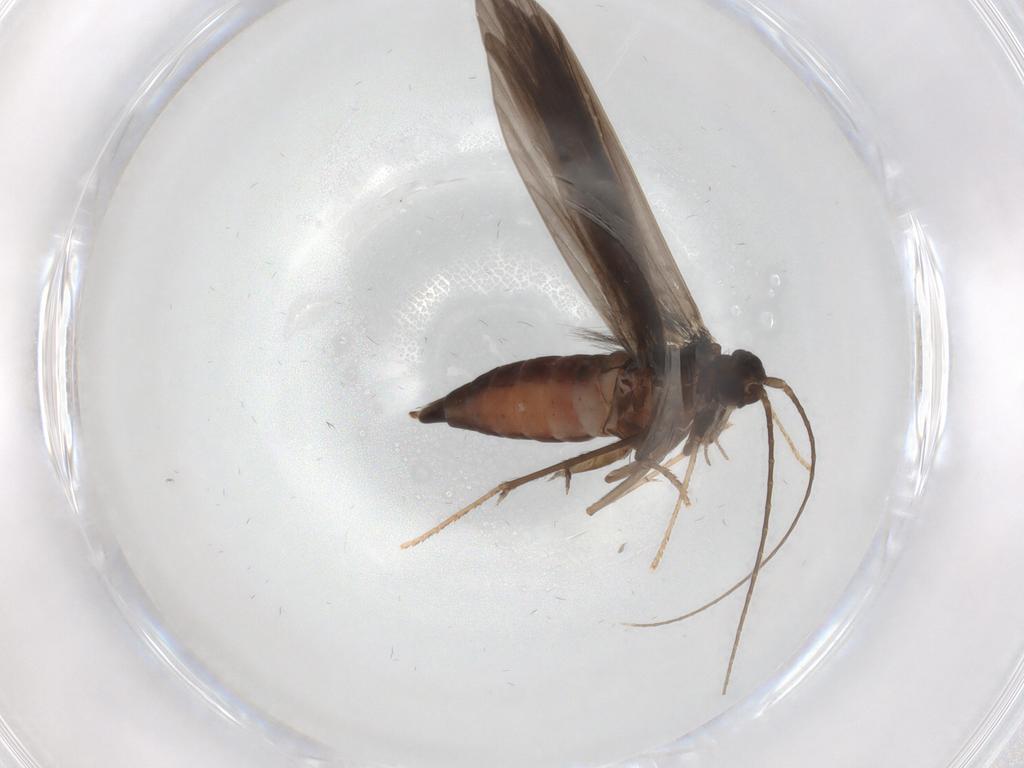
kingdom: Animalia
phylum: Arthropoda
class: Insecta
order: Trichoptera
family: Xiphocentronidae
